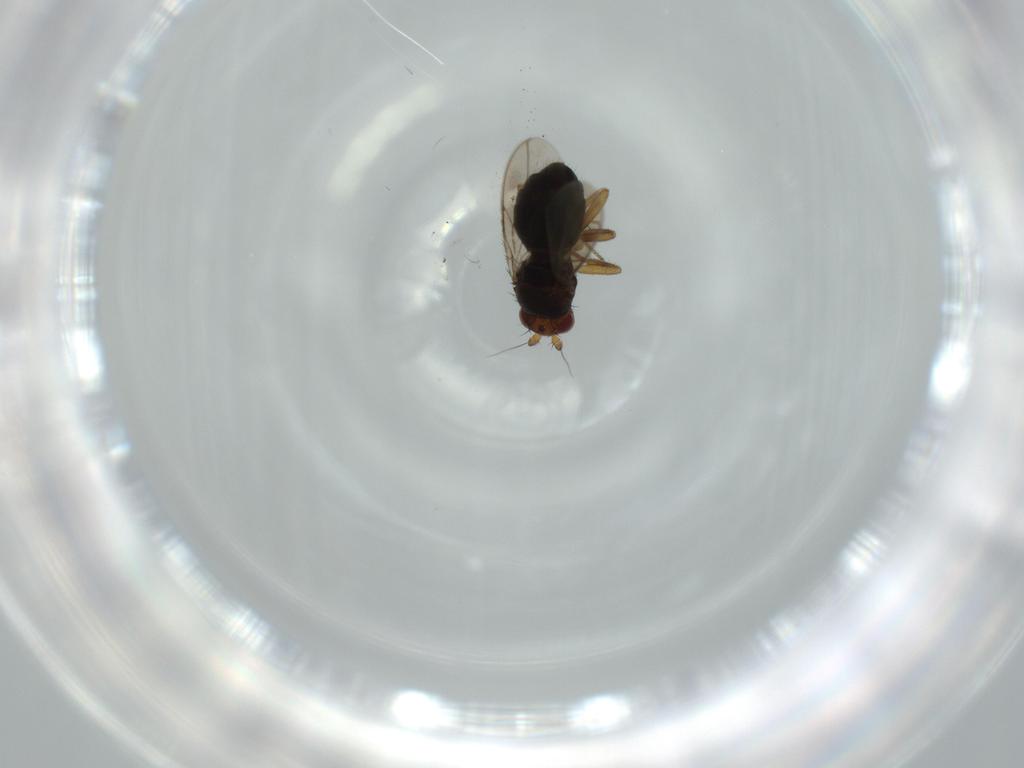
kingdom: Animalia
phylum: Arthropoda
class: Insecta
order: Diptera
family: Sphaeroceridae
